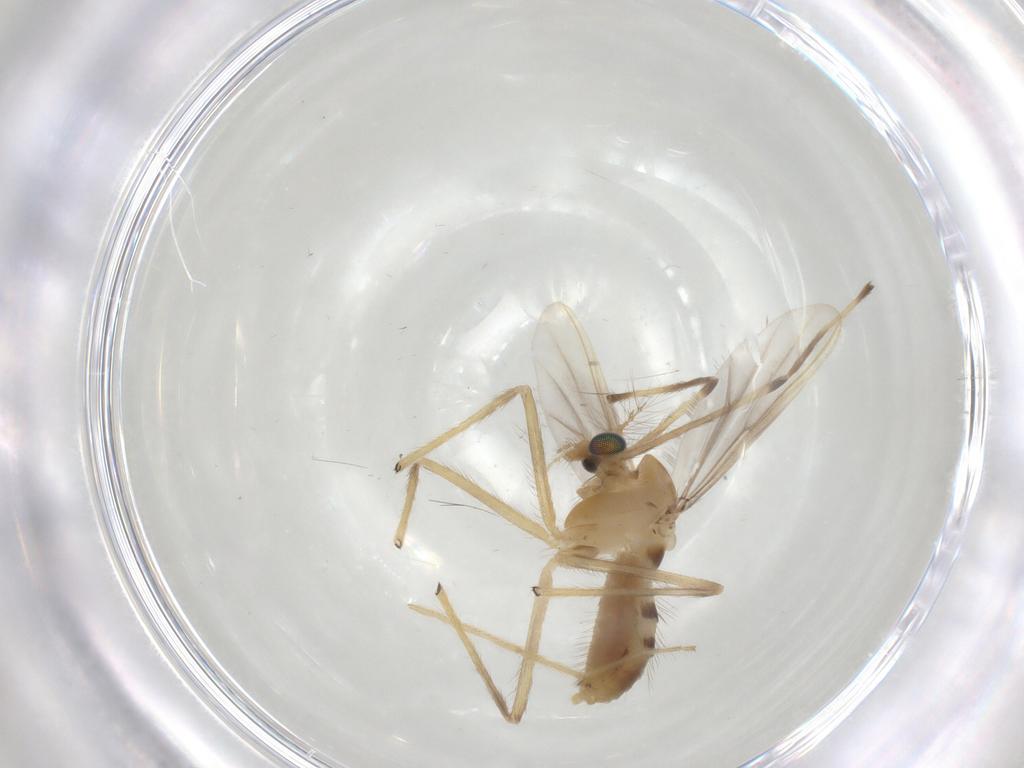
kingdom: Animalia
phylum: Arthropoda
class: Insecta
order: Diptera
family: Chironomidae
